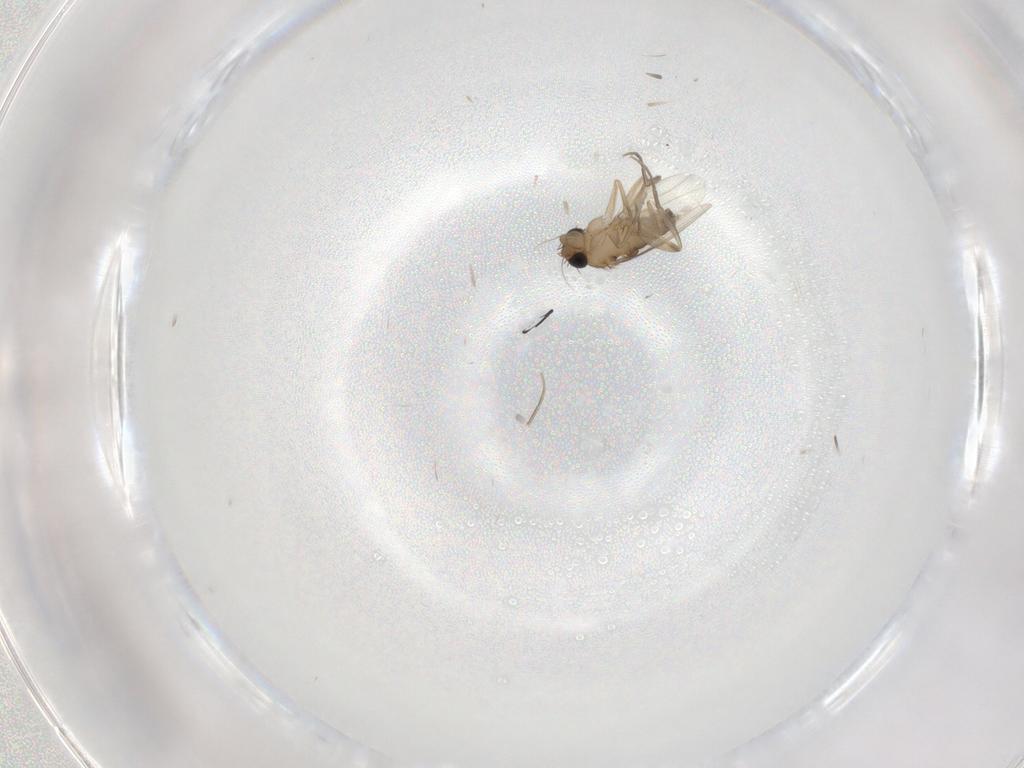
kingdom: Animalia
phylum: Arthropoda
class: Insecta
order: Diptera
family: Phoridae
